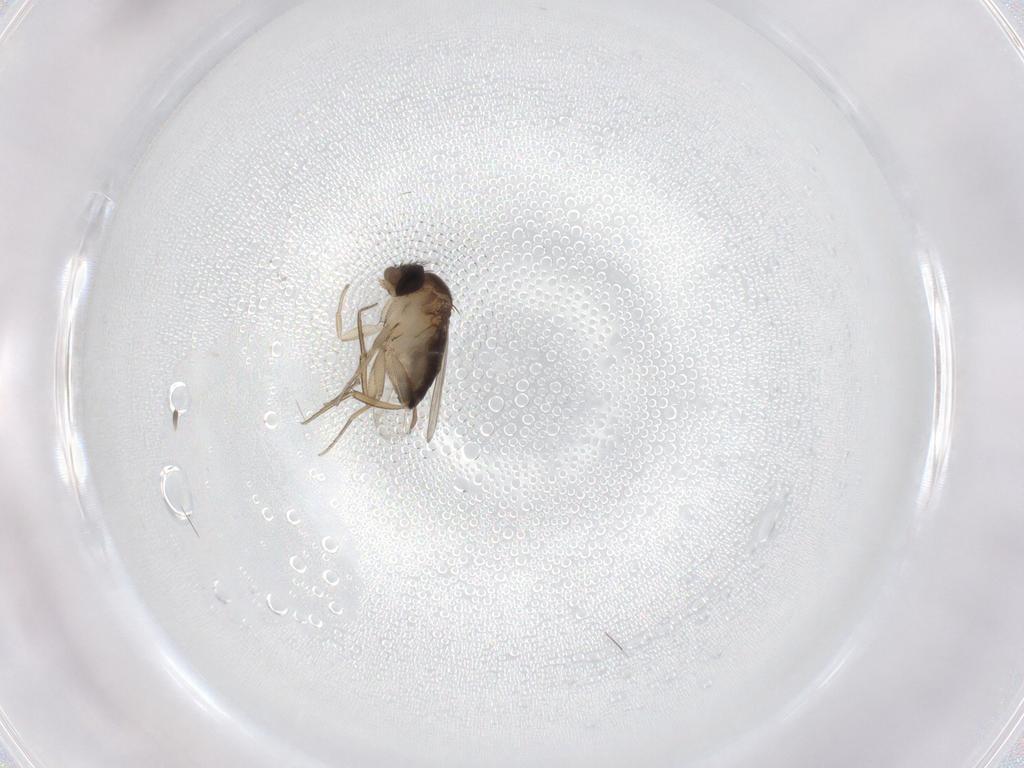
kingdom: Animalia
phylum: Arthropoda
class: Insecta
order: Diptera
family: Phoridae
